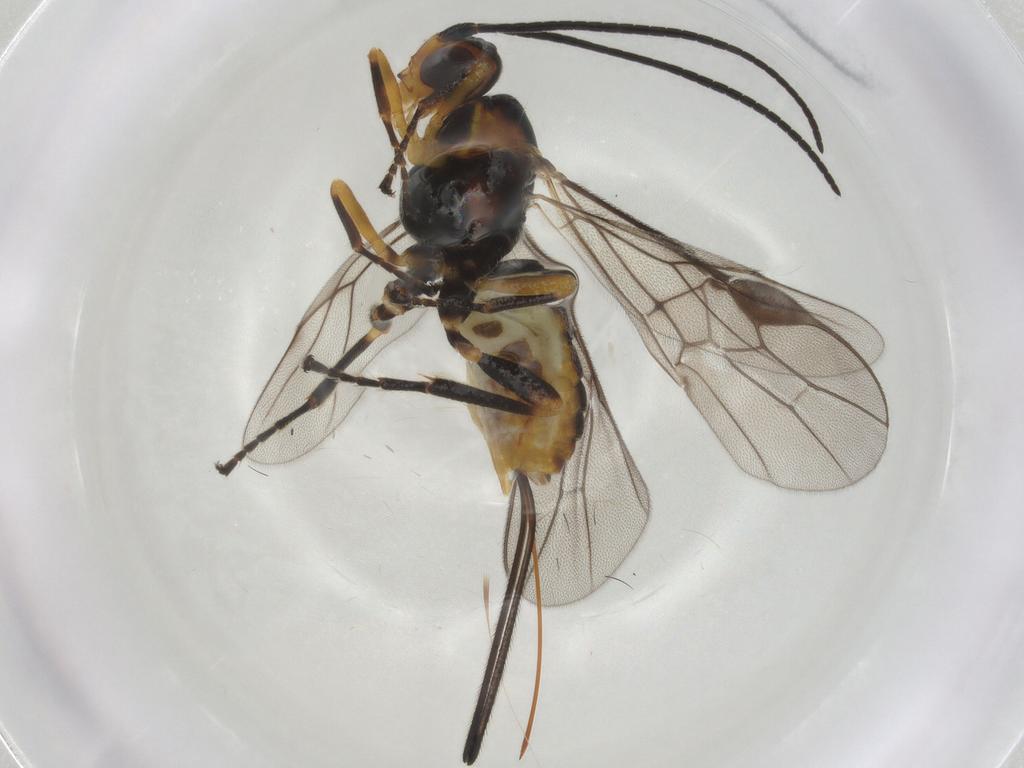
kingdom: Animalia
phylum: Arthropoda
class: Insecta
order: Hymenoptera
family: Braconidae
